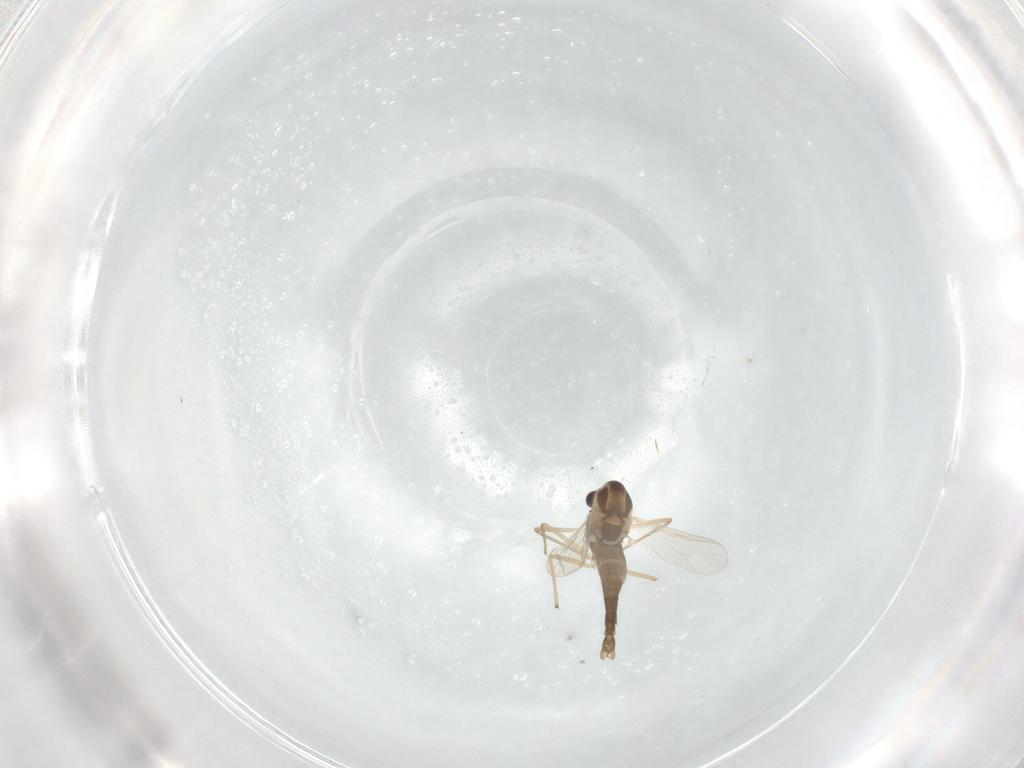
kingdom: Animalia
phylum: Arthropoda
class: Insecta
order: Diptera
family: Chironomidae
